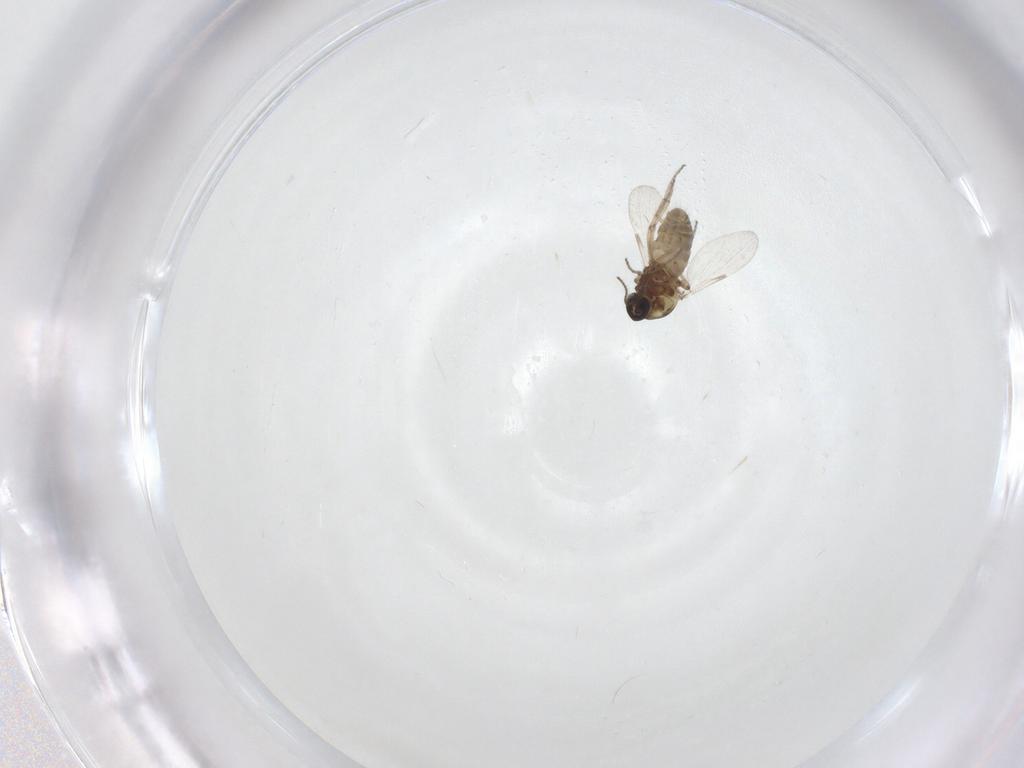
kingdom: Animalia
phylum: Arthropoda
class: Insecta
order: Diptera
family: Ceratopogonidae
